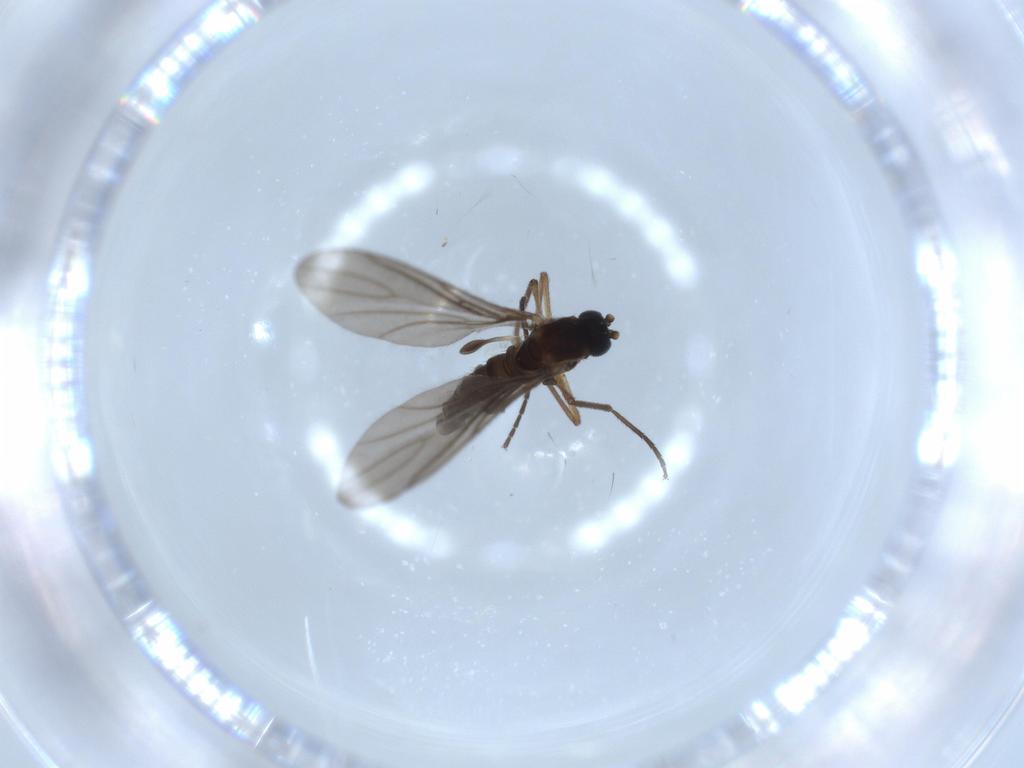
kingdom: Animalia
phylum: Arthropoda
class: Insecta
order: Diptera
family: Sciaridae
